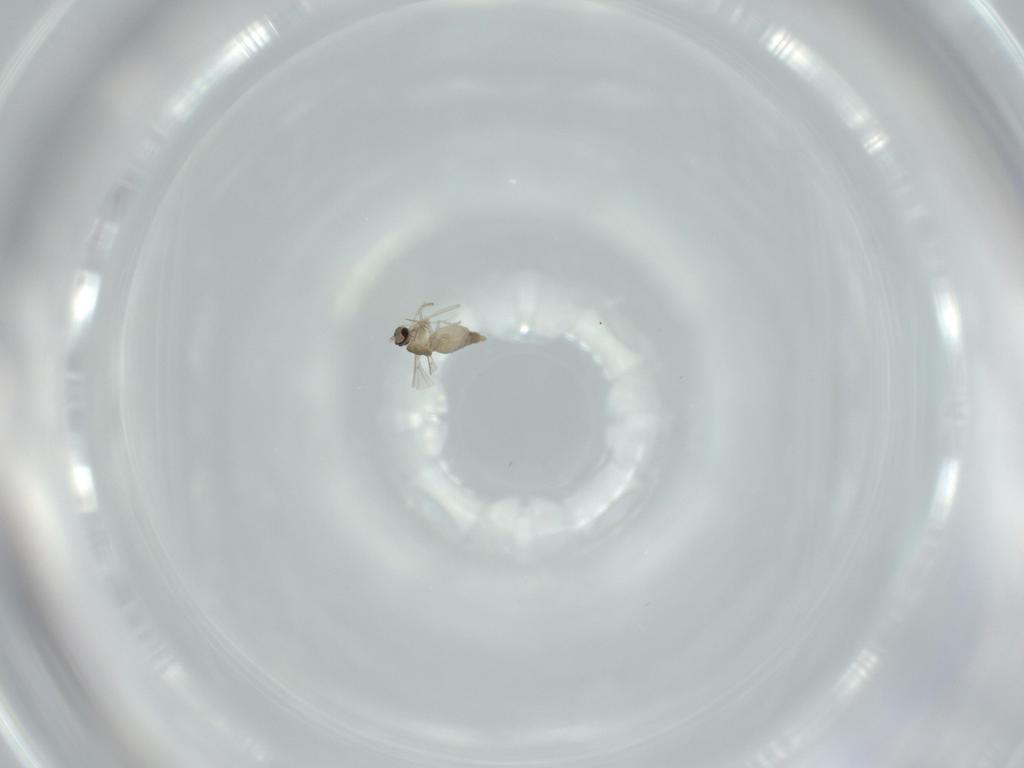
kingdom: Animalia
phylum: Arthropoda
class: Insecta
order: Diptera
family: Cecidomyiidae
